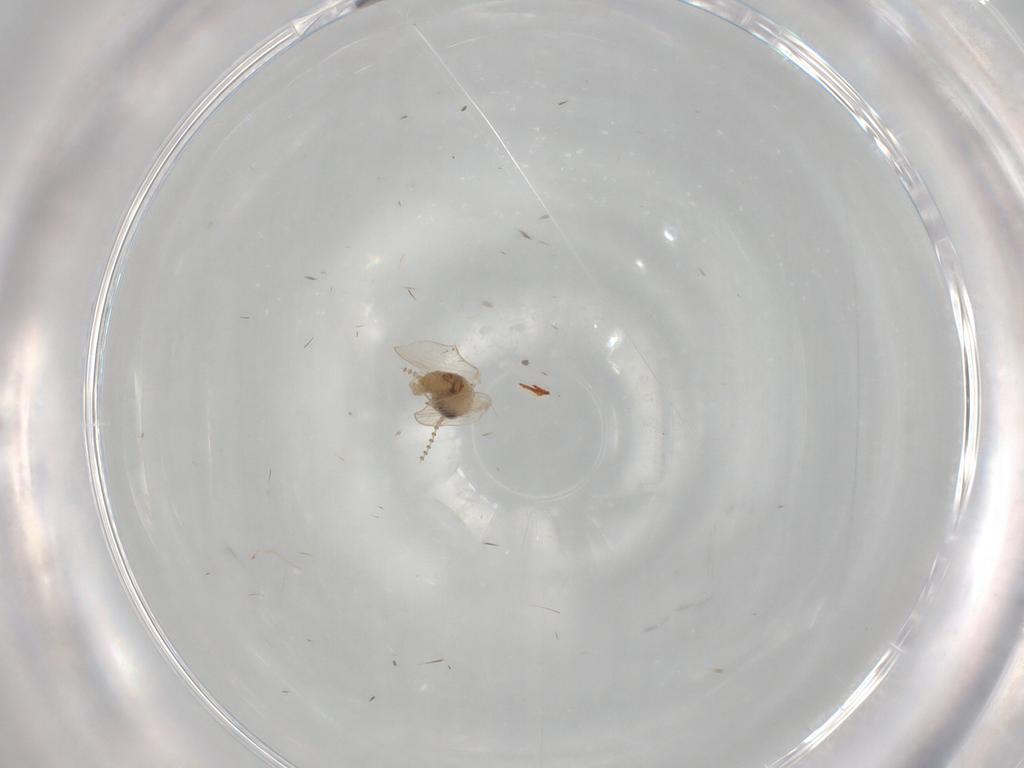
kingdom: Animalia
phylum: Arthropoda
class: Insecta
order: Diptera
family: Psychodidae
